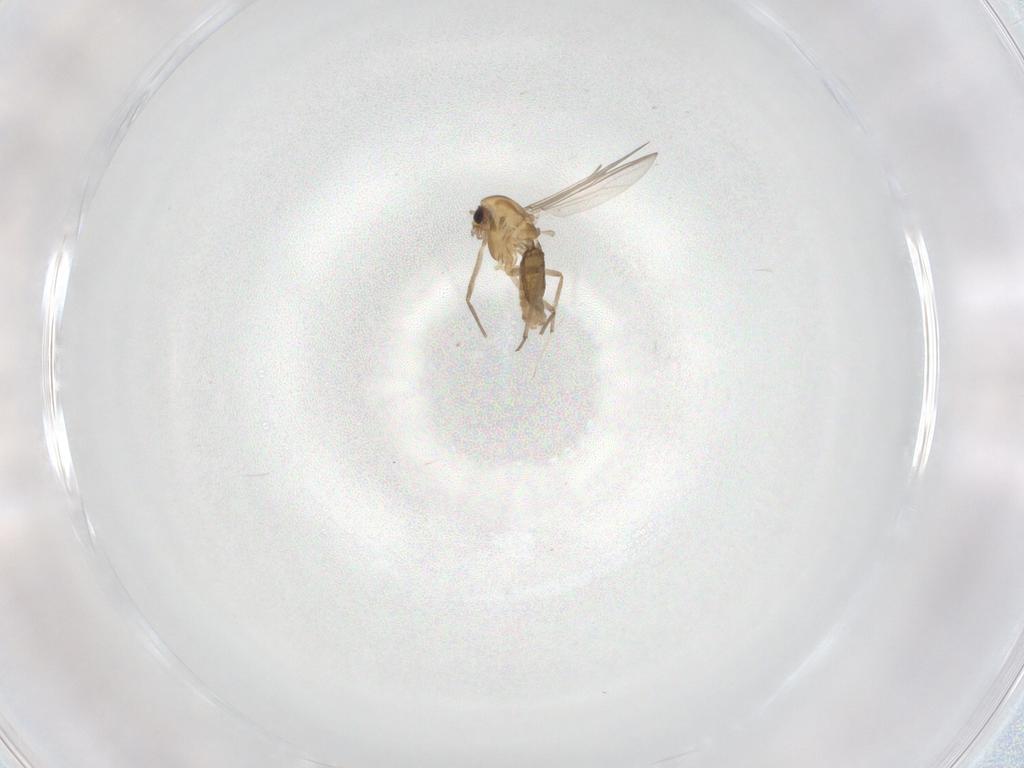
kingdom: Animalia
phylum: Arthropoda
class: Insecta
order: Diptera
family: Chironomidae
